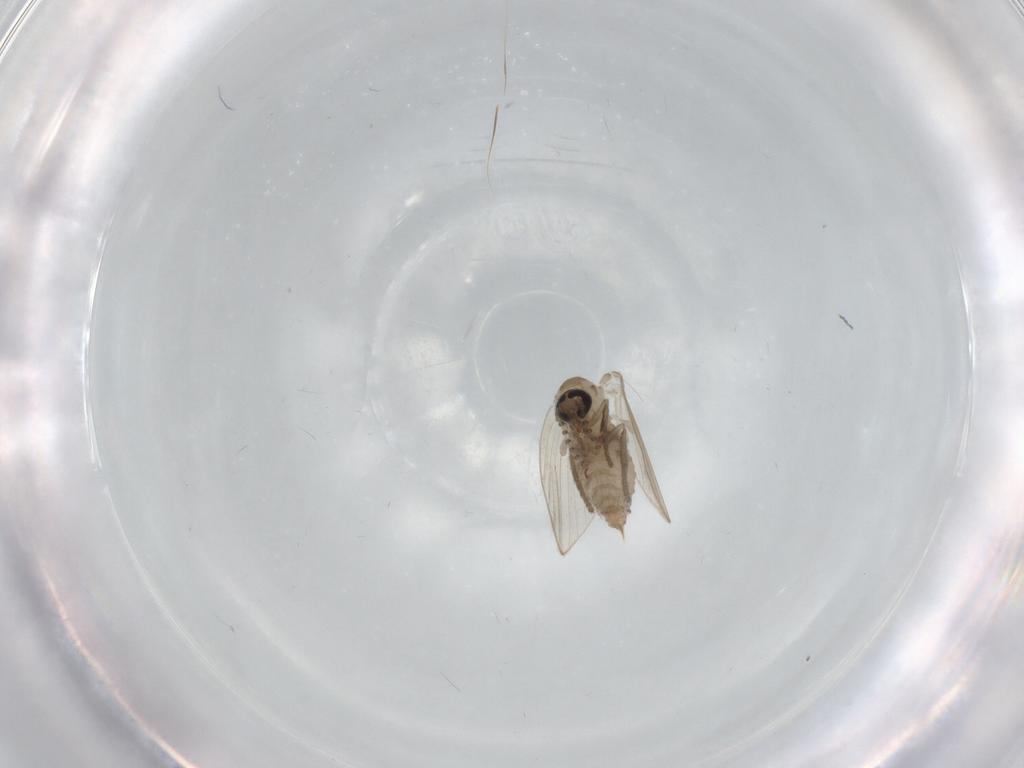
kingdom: Animalia
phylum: Arthropoda
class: Insecta
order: Diptera
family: Psychodidae
